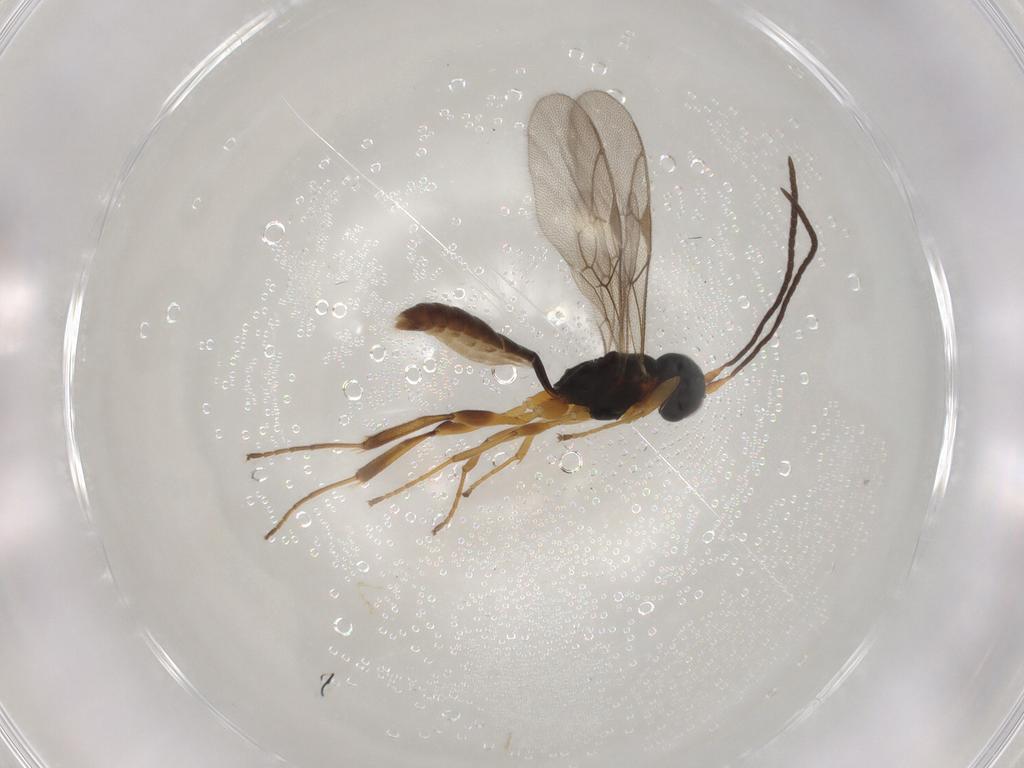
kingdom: Animalia
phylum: Arthropoda
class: Insecta
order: Hymenoptera
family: Ichneumonidae
